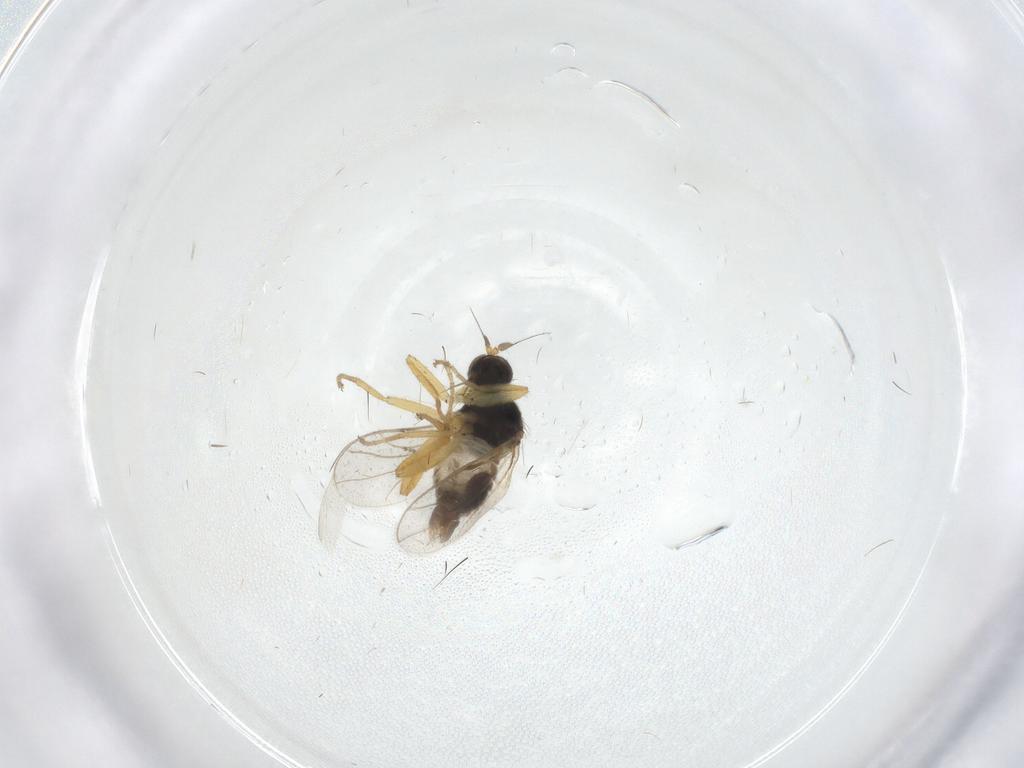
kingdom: Animalia
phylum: Arthropoda
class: Insecta
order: Diptera
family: Hybotidae
